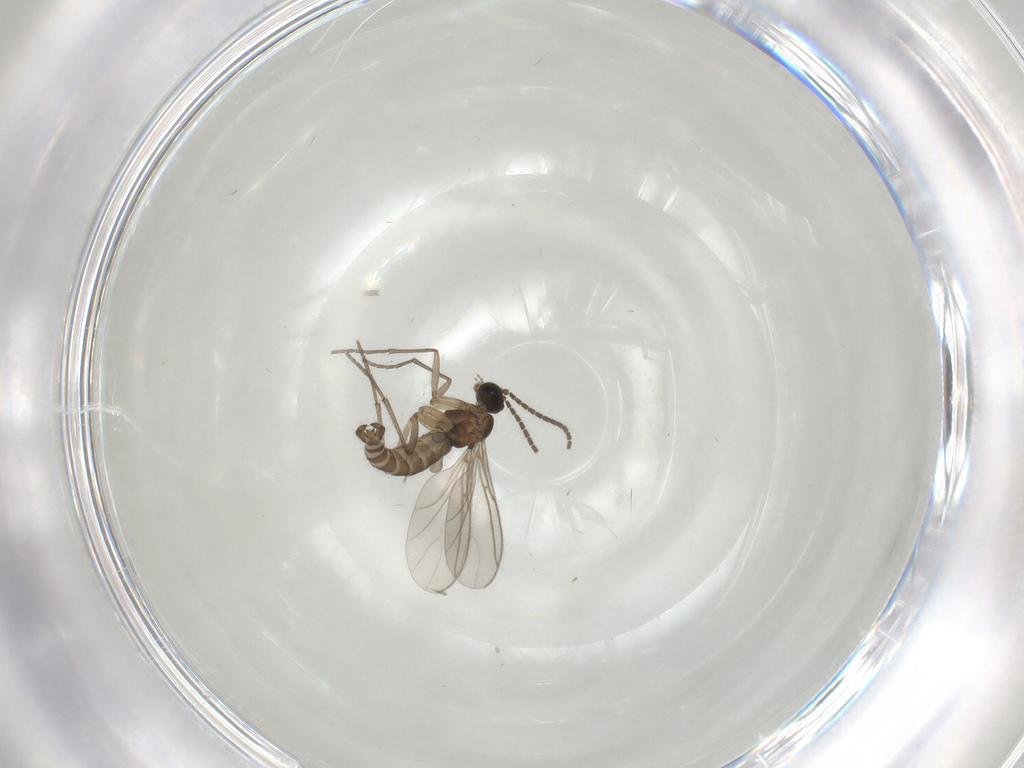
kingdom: Animalia
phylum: Arthropoda
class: Insecta
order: Diptera
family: Sciaridae
